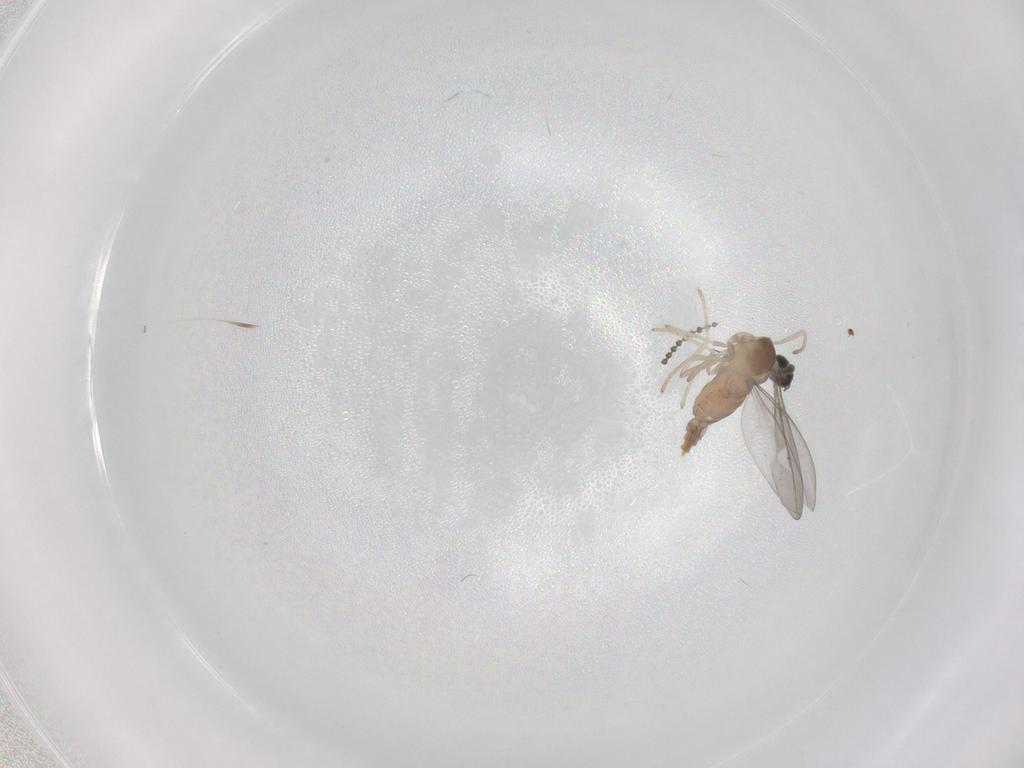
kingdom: Animalia
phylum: Arthropoda
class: Insecta
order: Diptera
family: Cecidomyiidae
